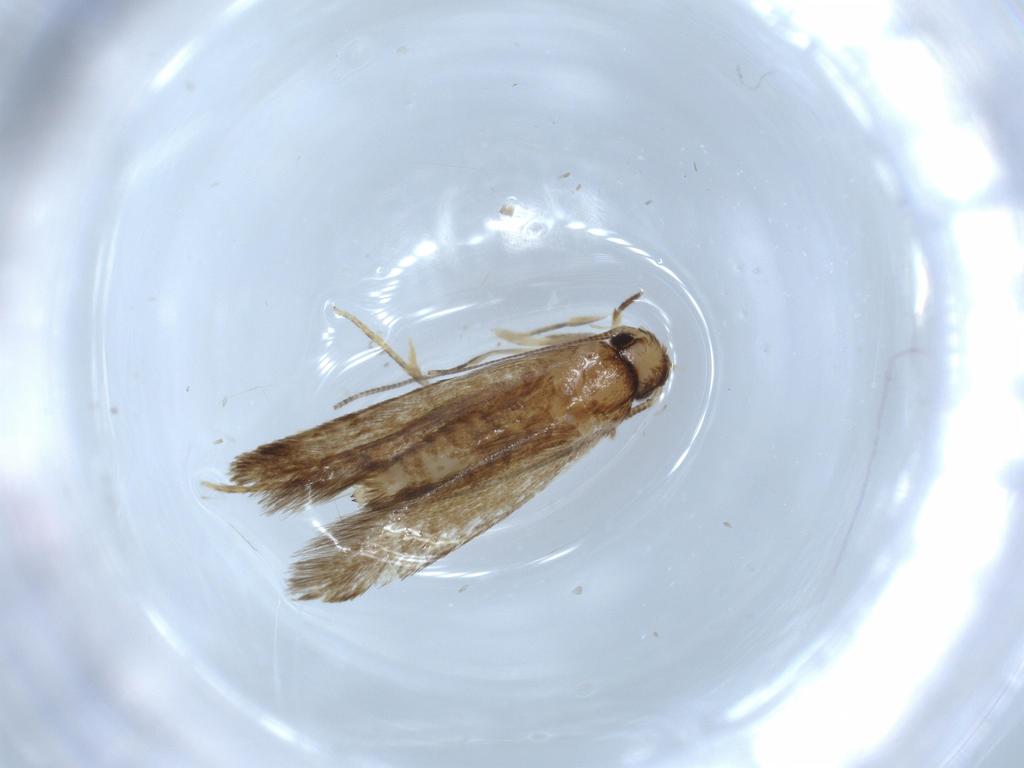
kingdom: Animalia
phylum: Arthropoda
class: Insecta
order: Lepidoptera
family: Tineidae
